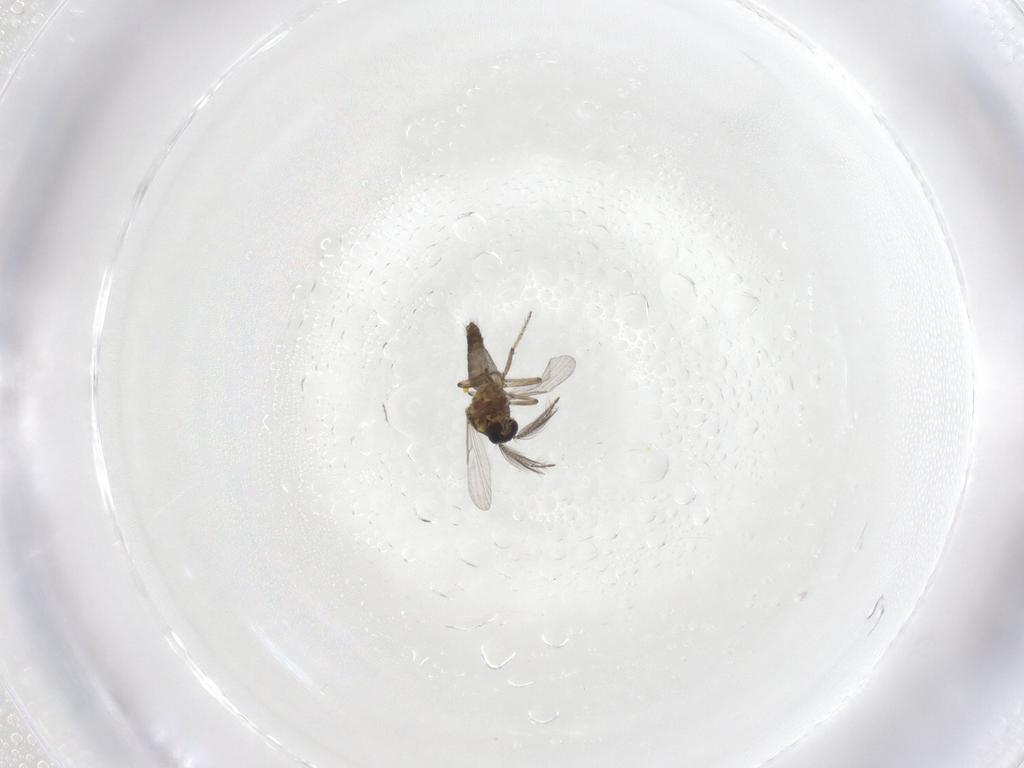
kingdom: Animalia
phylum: Arthropoda
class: Insecta
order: Diptera
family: Ceratopogonidae
